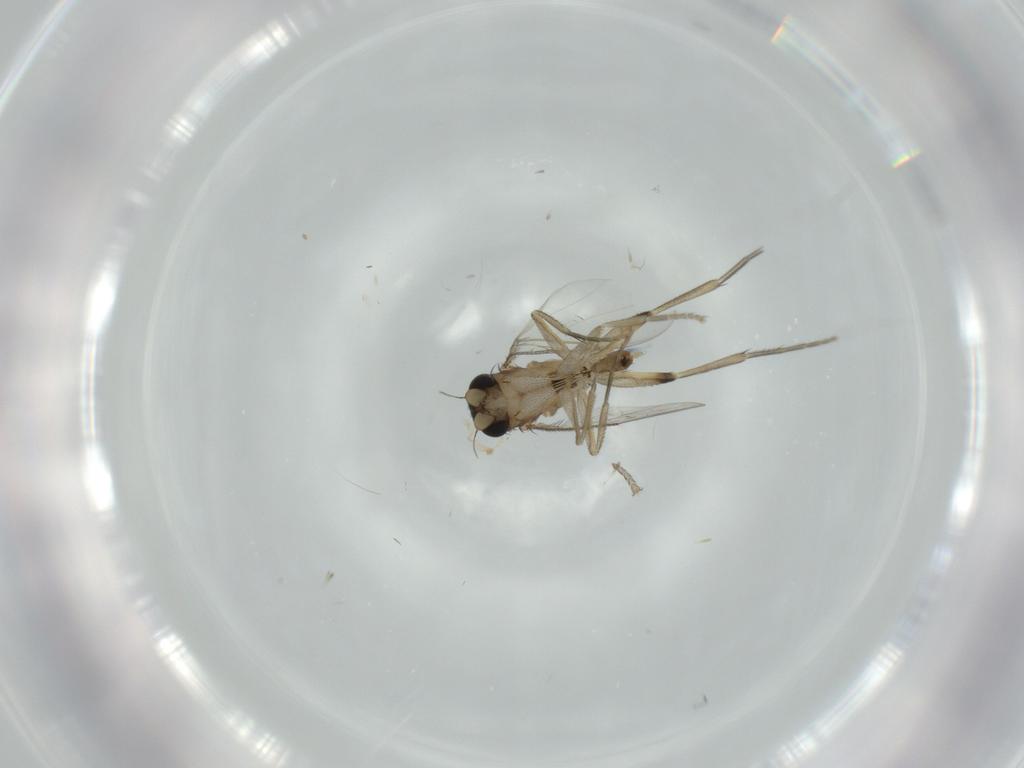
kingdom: Animalia
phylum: Arthropoda
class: Insecta
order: Diptera
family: Phoridae
